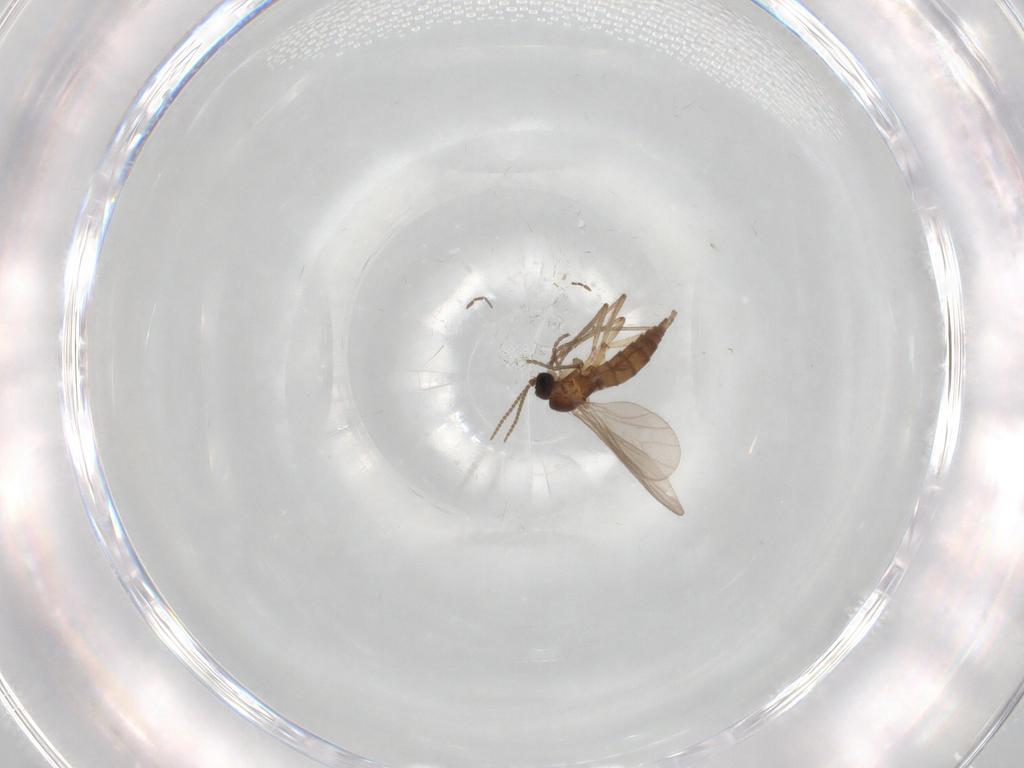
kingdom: Animalia
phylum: Arthropoda
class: Insecta
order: Diptera
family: Sciaridae
